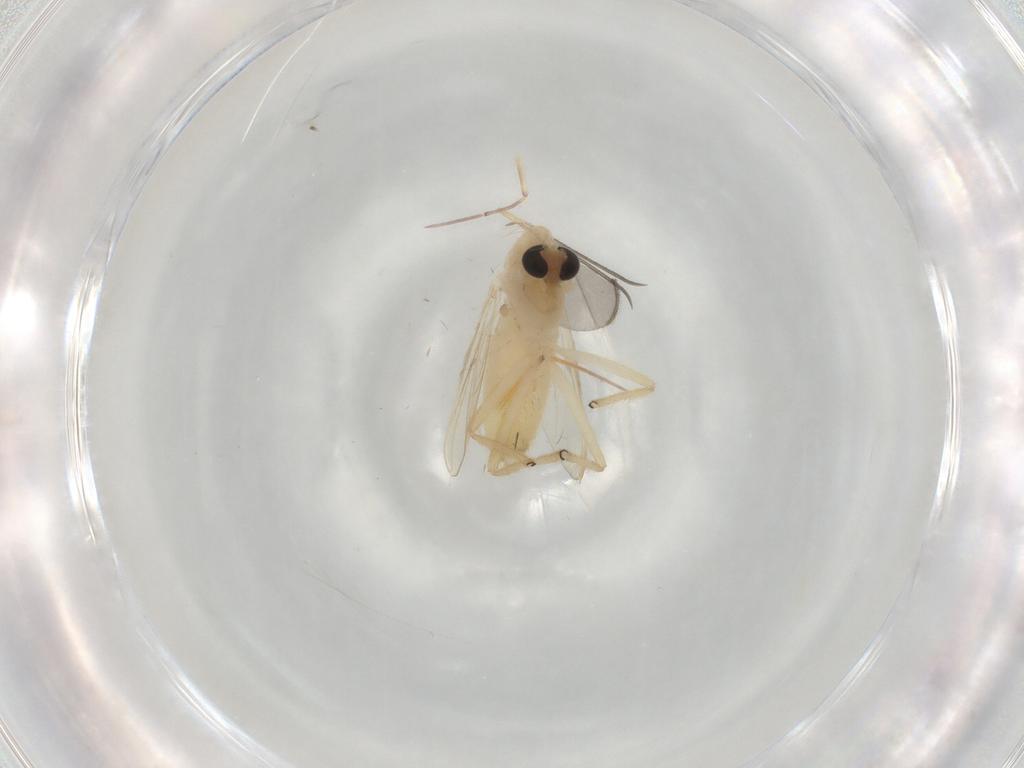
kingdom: Animalia
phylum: Arthropoda
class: Insecta
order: Diptera
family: Chironomidae
